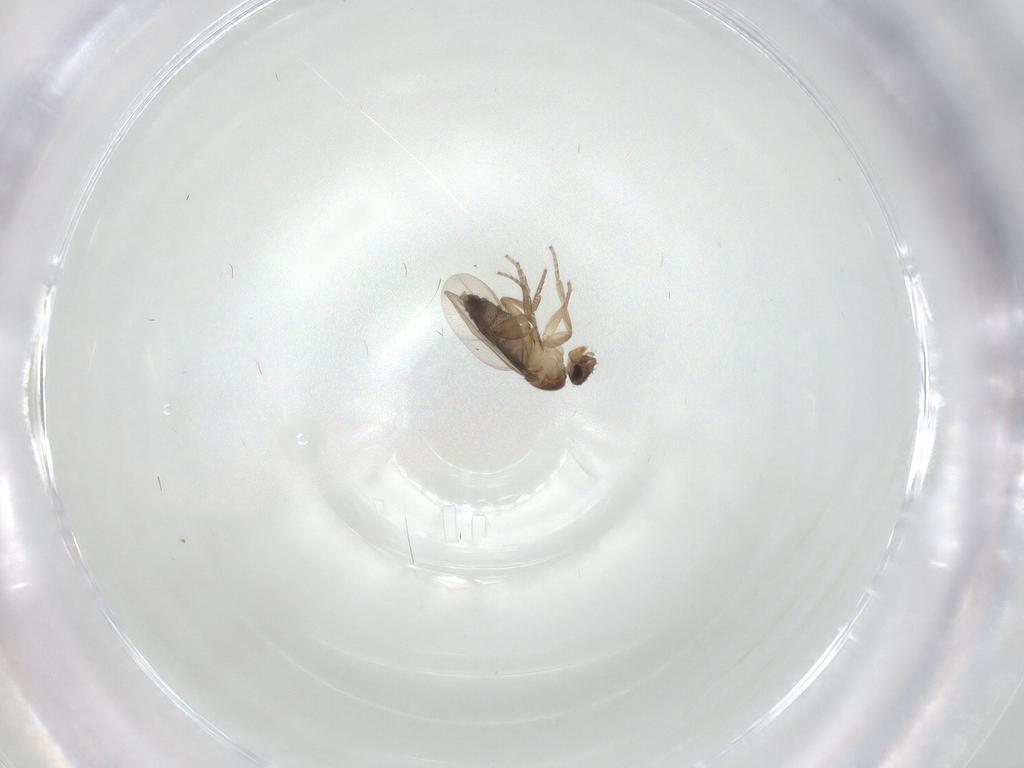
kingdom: Animalia
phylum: Arthropoda
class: Insecta
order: Diptera
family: Phoridae
